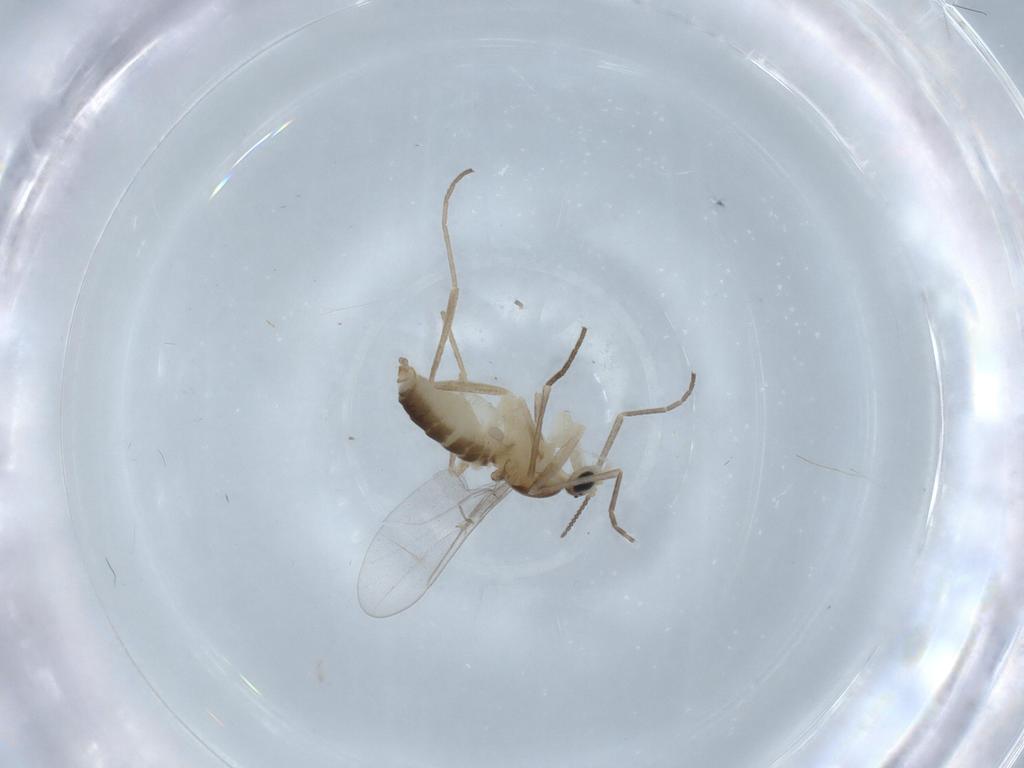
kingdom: Animalia
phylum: Arthropoda
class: Insecta
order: Diptera
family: Cecidomyiidae
